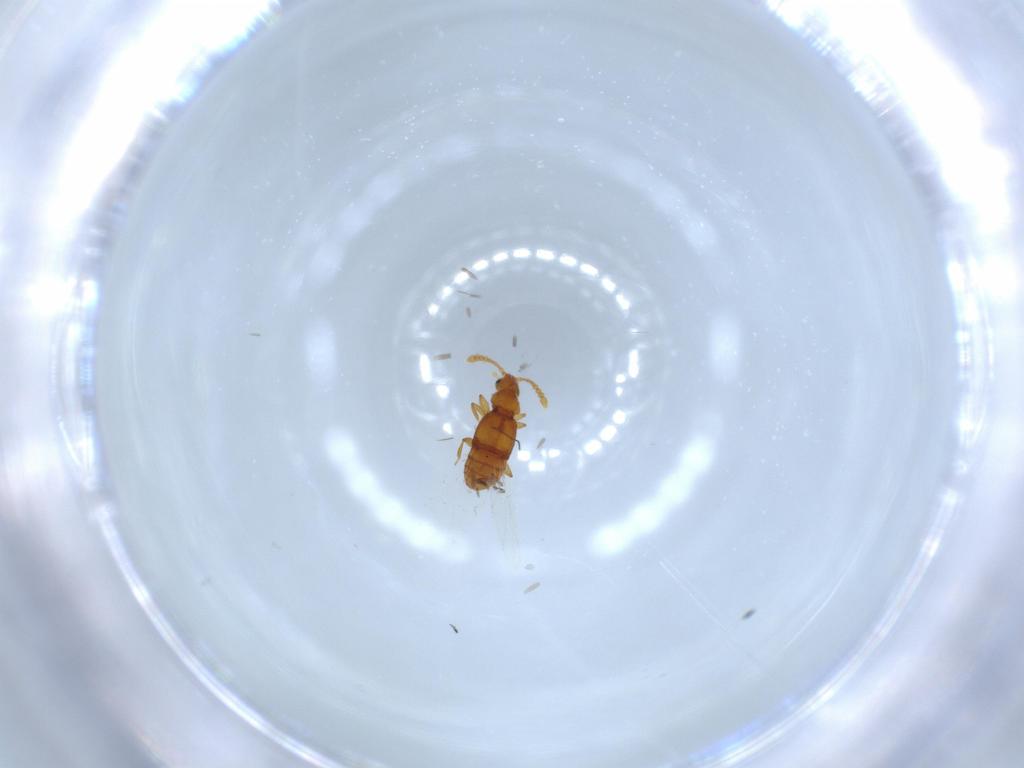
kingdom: Animalia
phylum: Arthropoda
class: Insecta
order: Coleoptera
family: Staphylinidae
